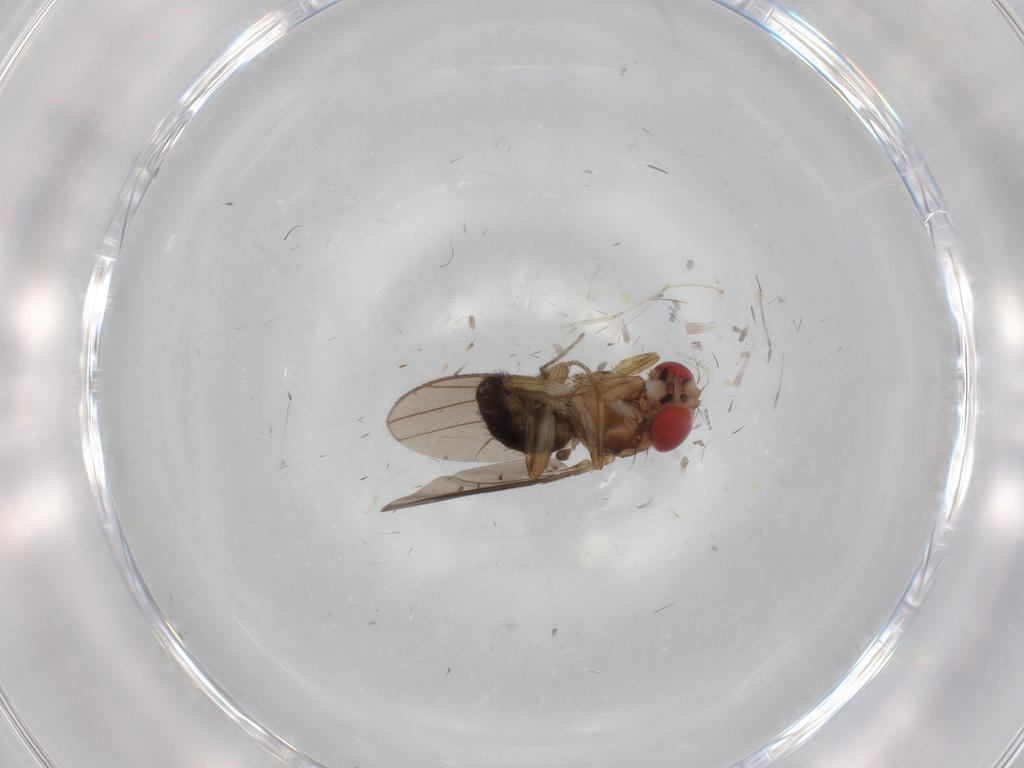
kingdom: Animalia
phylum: Arthropoda
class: Insecta
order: Diptera
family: Drosophilidae
